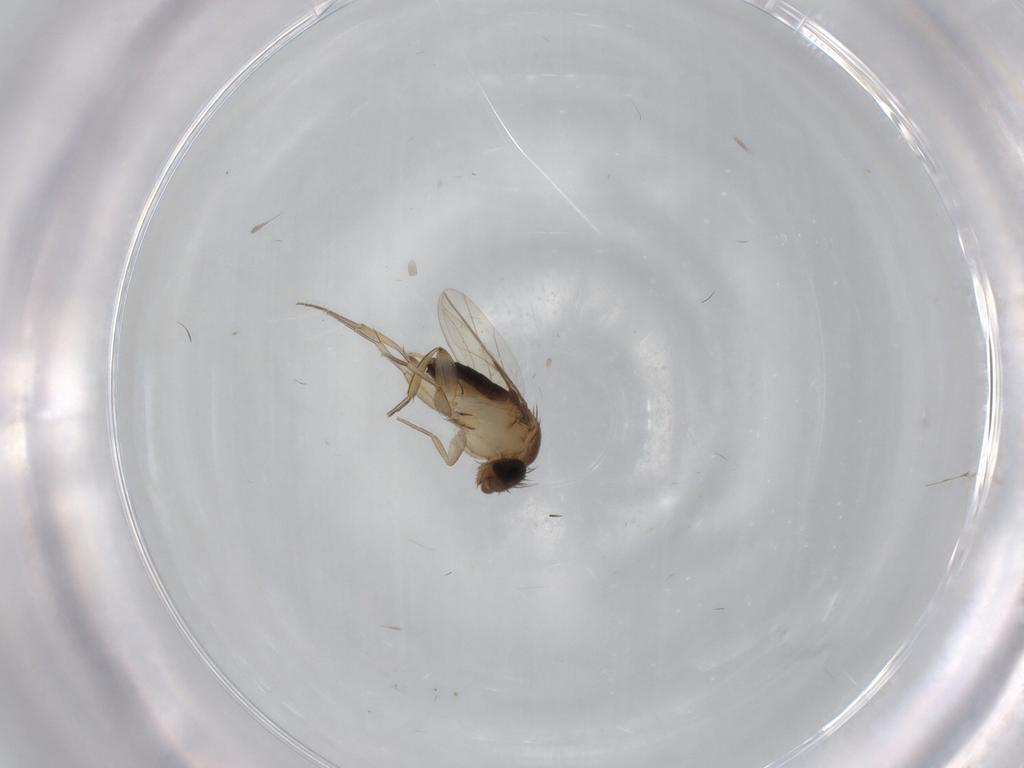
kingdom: Animalia
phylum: Arthropoda
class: Insecta
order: Diptera
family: Phoridae
